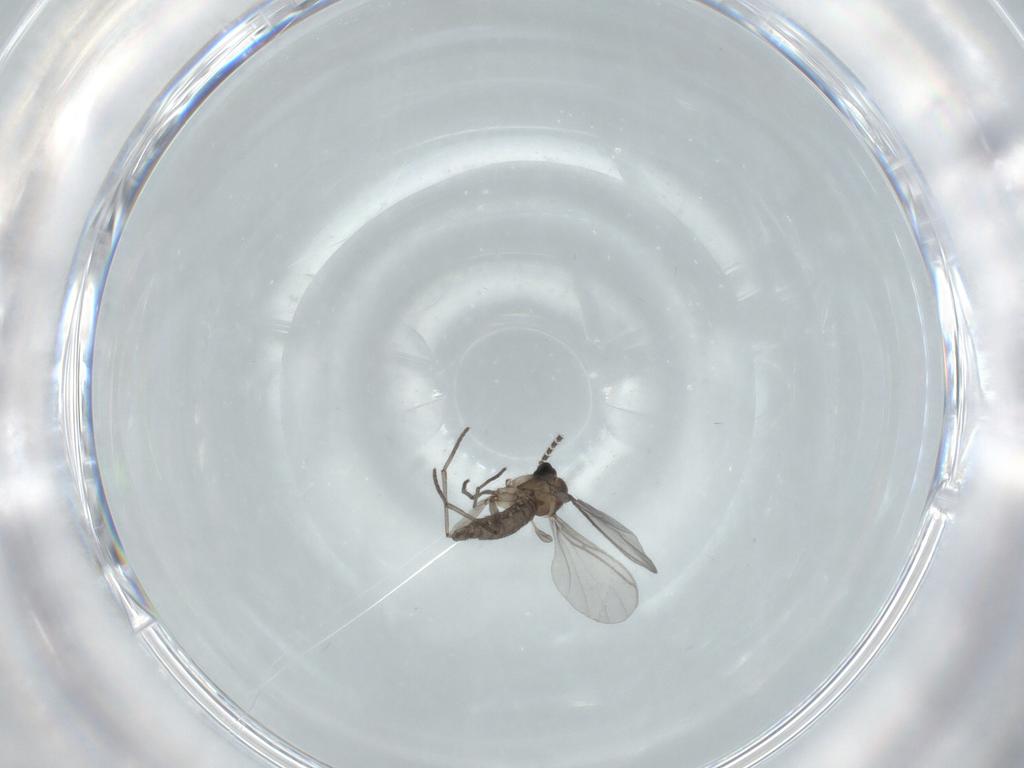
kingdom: Animalia
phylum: Arthropoda
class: Insecta
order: Diptera
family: Sciaridae
